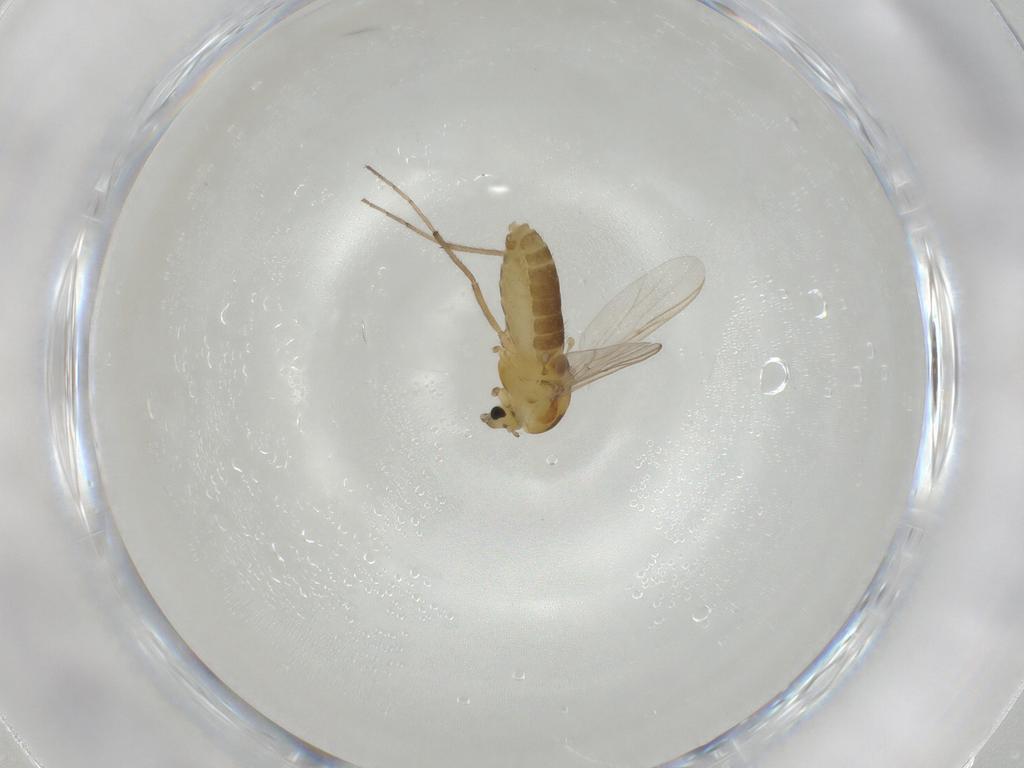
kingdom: Animalia
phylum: Arthropoda
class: Insecta
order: Diptera
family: Chironomidae
